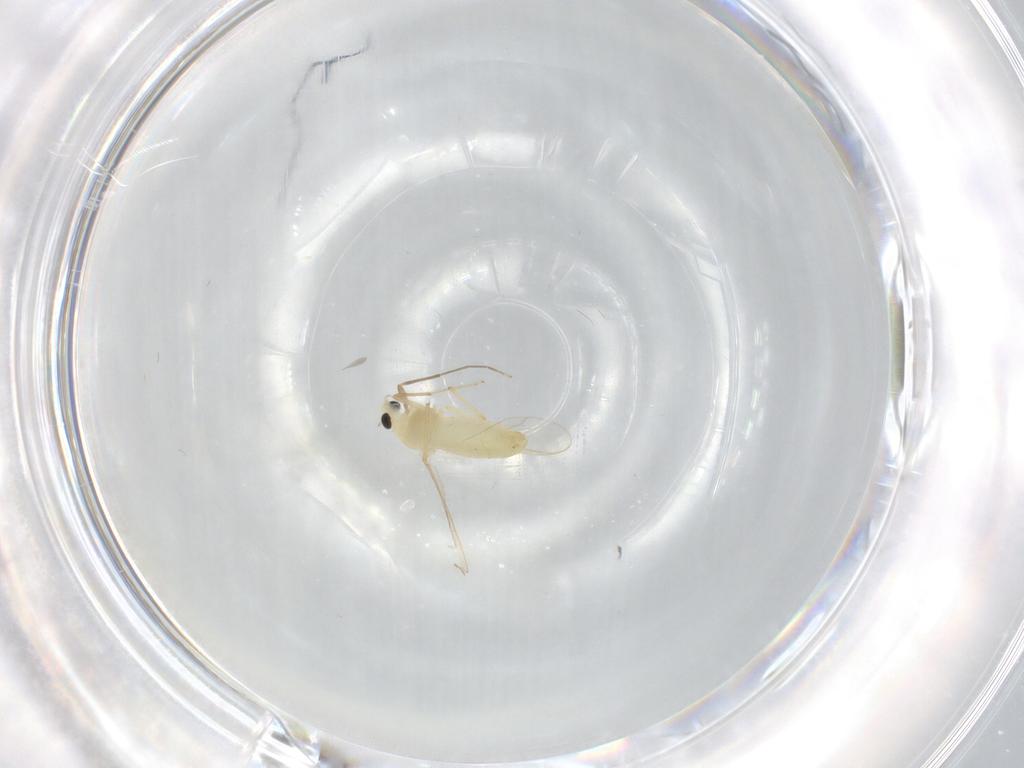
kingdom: Animalia
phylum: Arthropoda
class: Insecta
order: Diptera
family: Chironomidae
